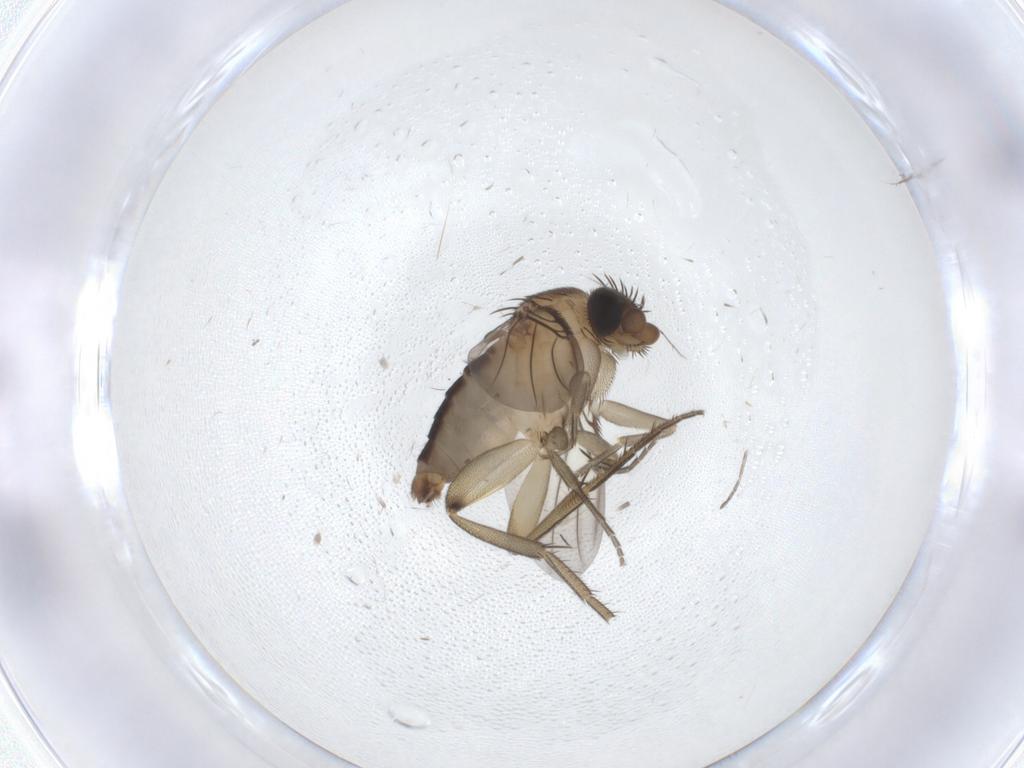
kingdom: Animalia
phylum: Arthropoda
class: Insecta
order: Diptera
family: Phoridae
